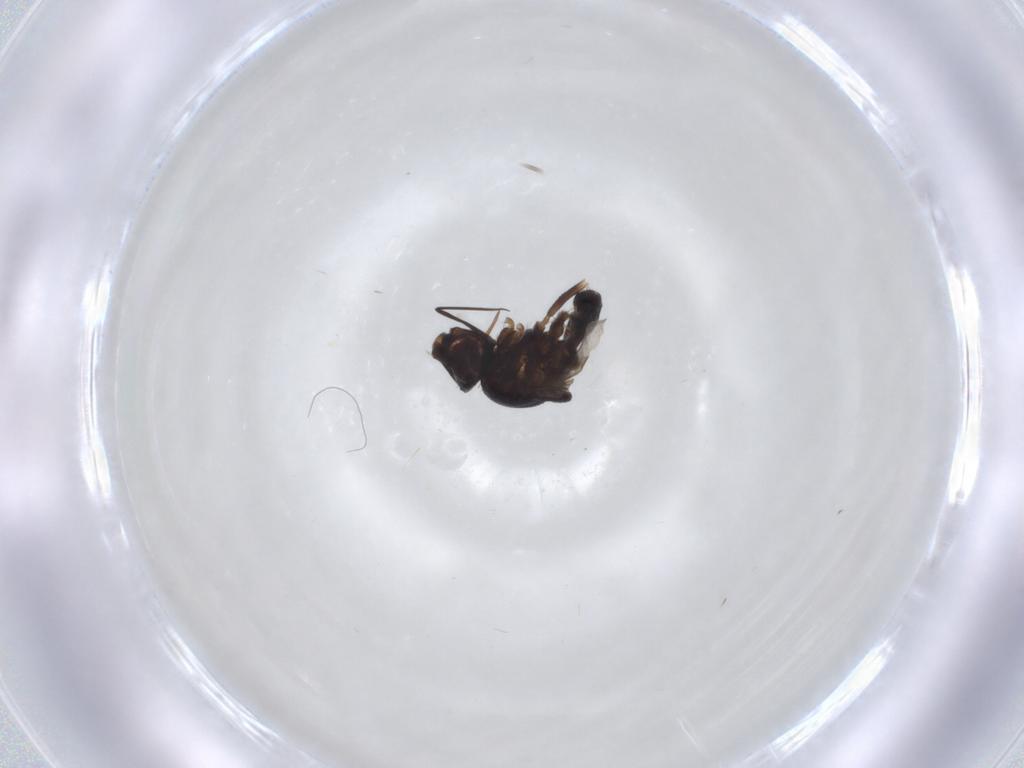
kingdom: Animalia
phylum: Arthropoda
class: Insecta
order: Diptera
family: Chloropidae
